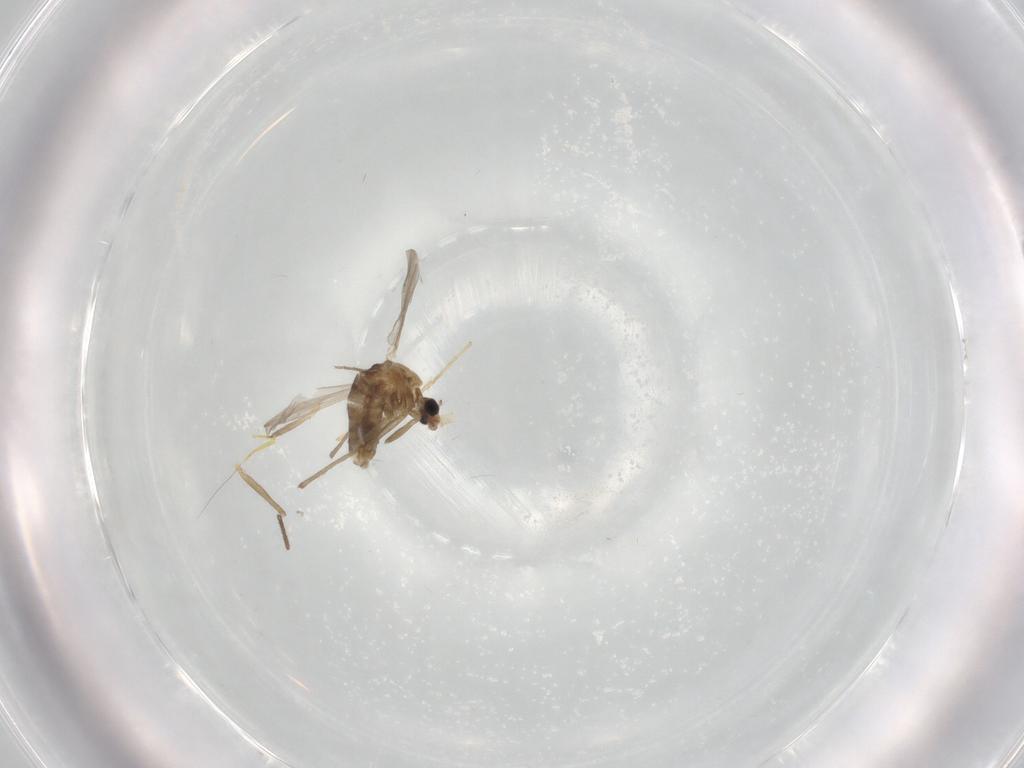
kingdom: Animalia
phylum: Arthropoda
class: Insecta
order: Diptera
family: Chironomidae
